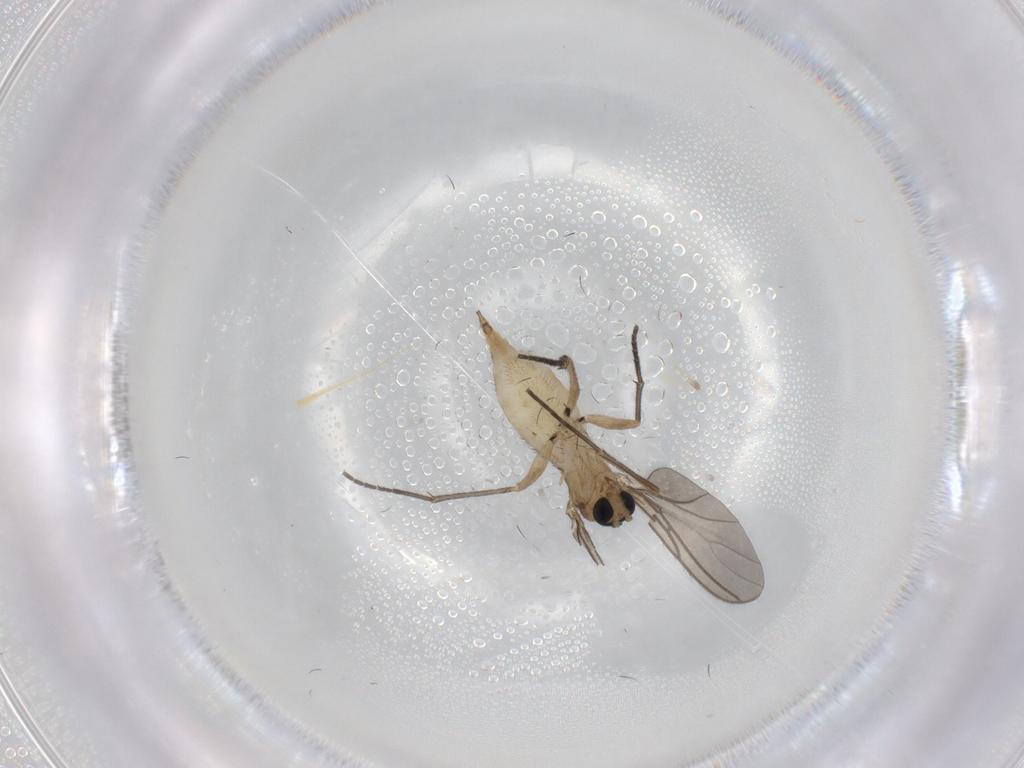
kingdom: Animalia
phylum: Arthropoda
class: Insecta
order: Diptera
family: Sciaridae
